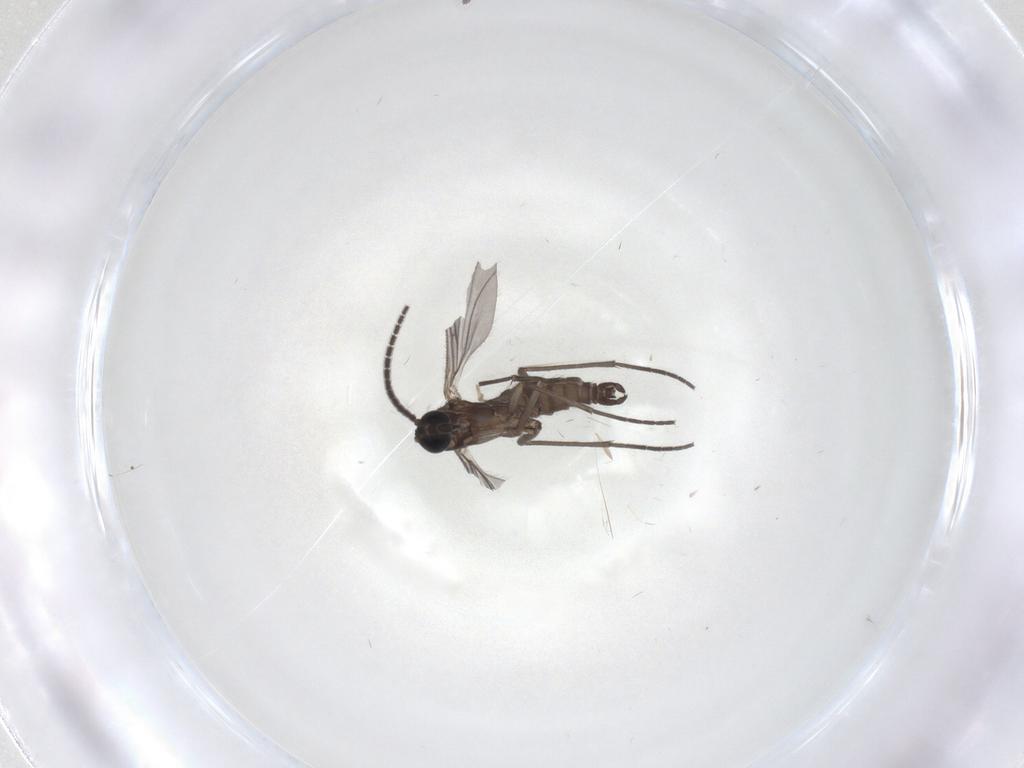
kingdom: Animalia
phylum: Arthropoda
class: Insecta
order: Diptera
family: Sciaridae
